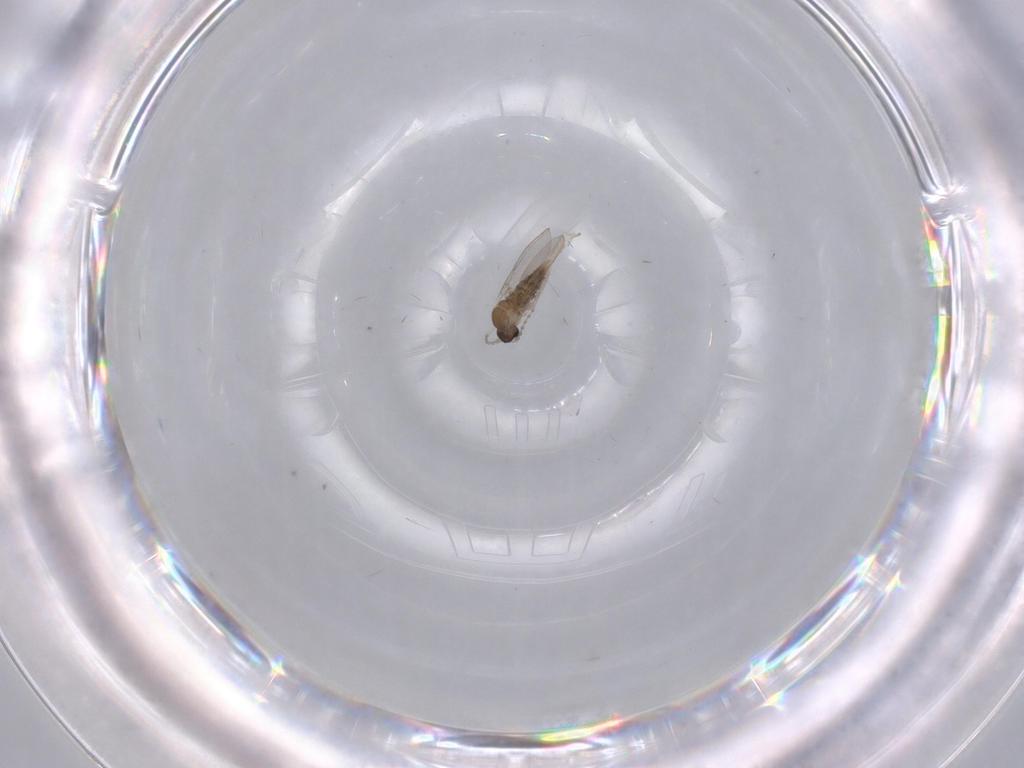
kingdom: Animalia
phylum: Arthropoda
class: Insecta
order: Diptera
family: Cecidomyiidae
